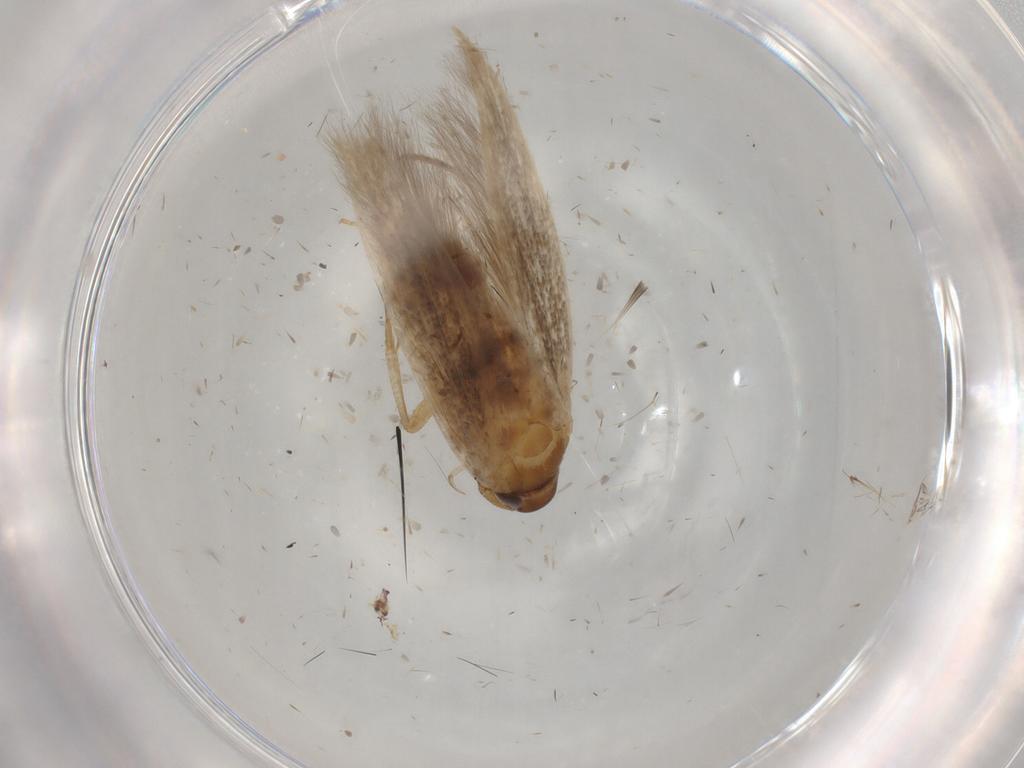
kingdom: Animalia
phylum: Arthropoda
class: Insecta
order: Lepidoptera
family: Cosmopterigidae
